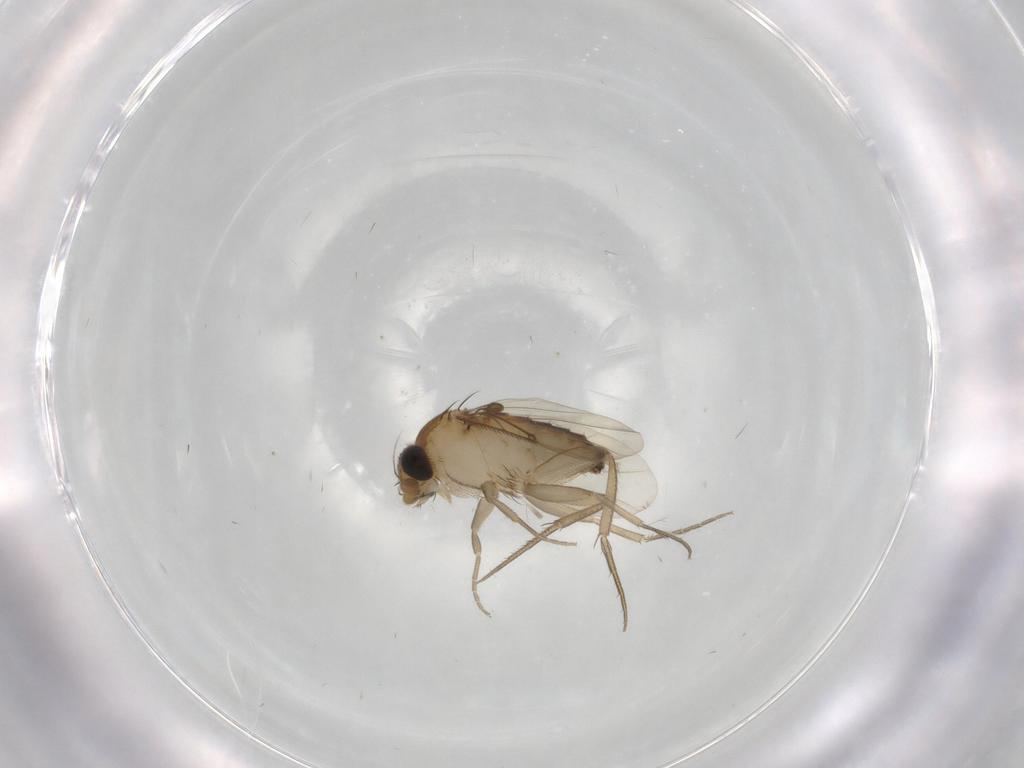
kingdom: Animalia
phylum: Arthropoda
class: Insecta
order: Diptera
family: Phoridae
